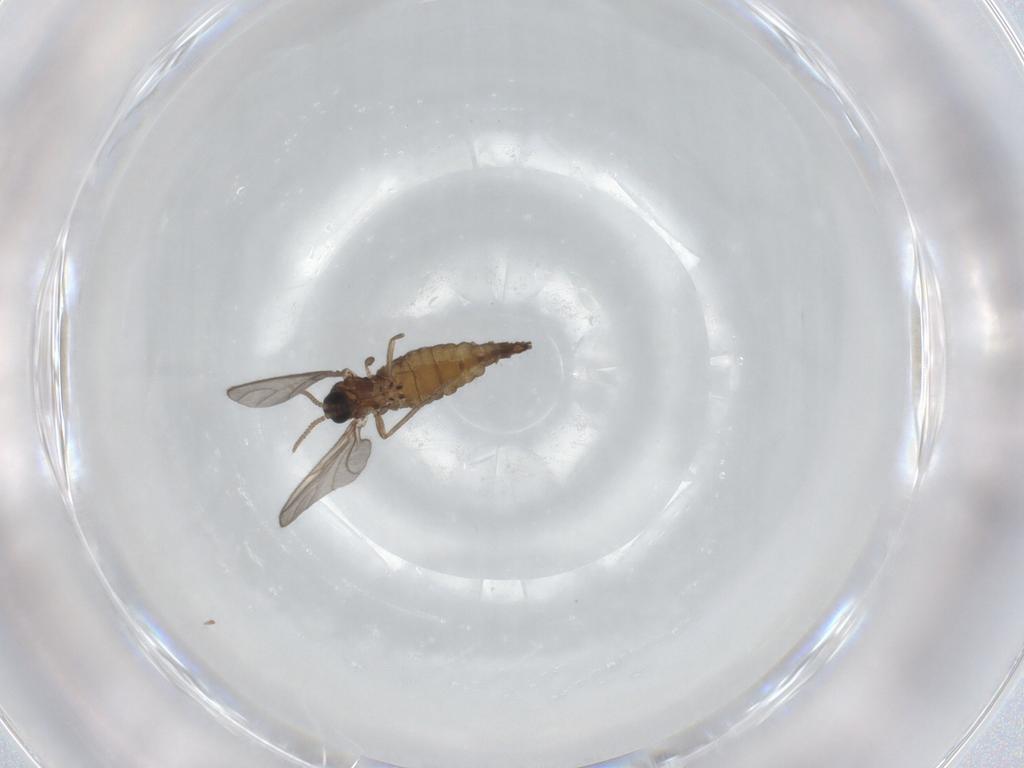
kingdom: Animalia
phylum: Arthropoda
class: Insecta
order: Diptera
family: Sciaridae
